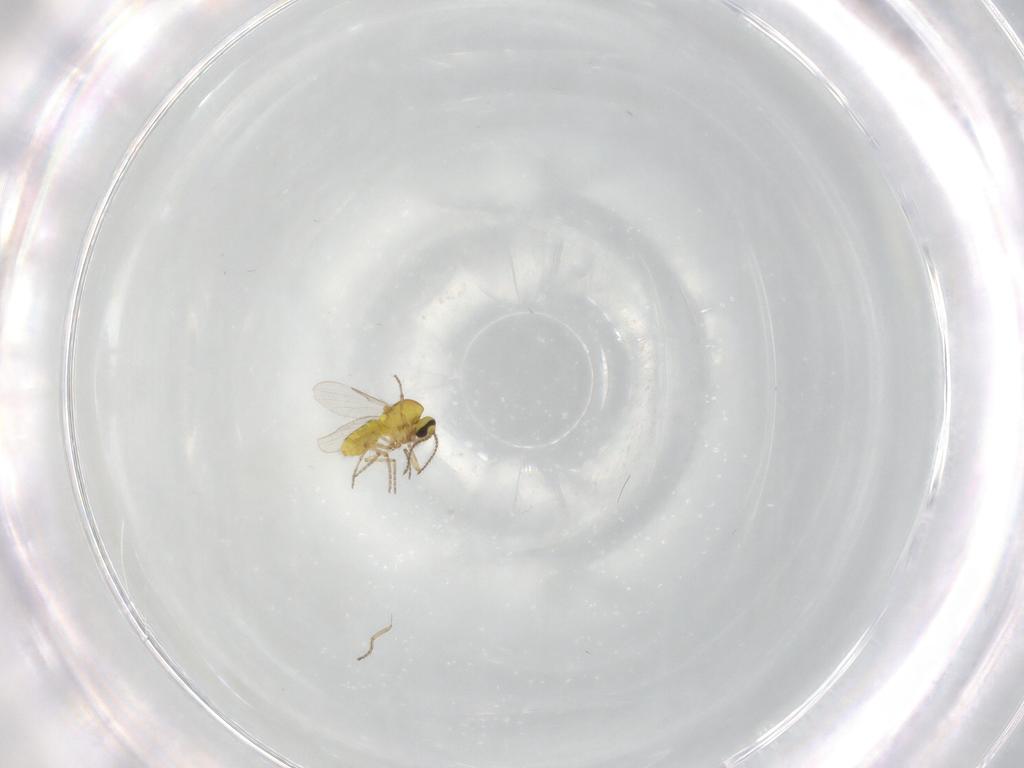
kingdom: Animalia
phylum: Arthropoda
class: Insecta
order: Diptera
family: Ceratopogonidae
